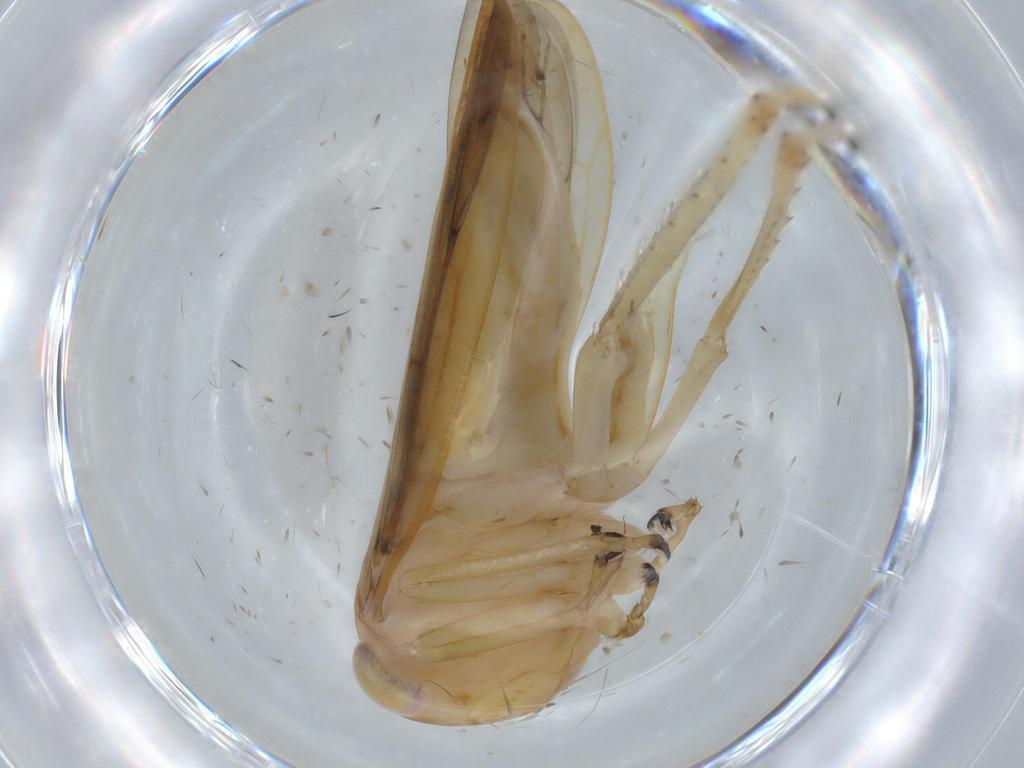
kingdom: Animalia
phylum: Arthropoda
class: Insecta
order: Hemiptera
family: Cicadellidae
